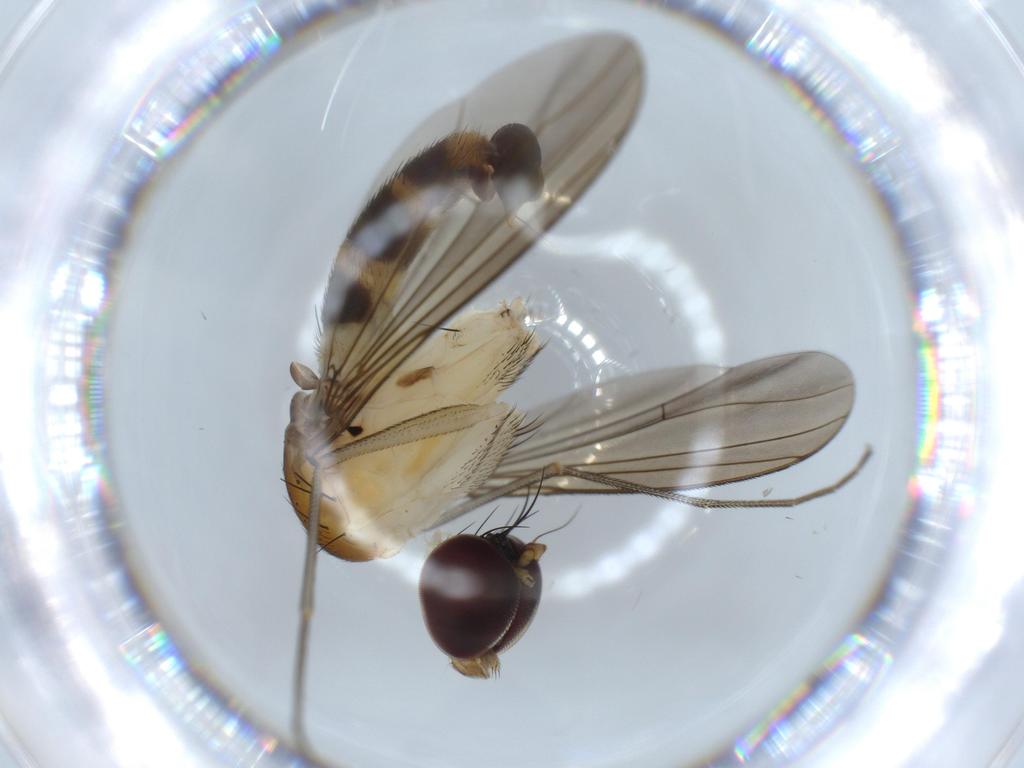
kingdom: Animalia
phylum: Arthropoda
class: Insecta
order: Diptera
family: Dolichopodidae
